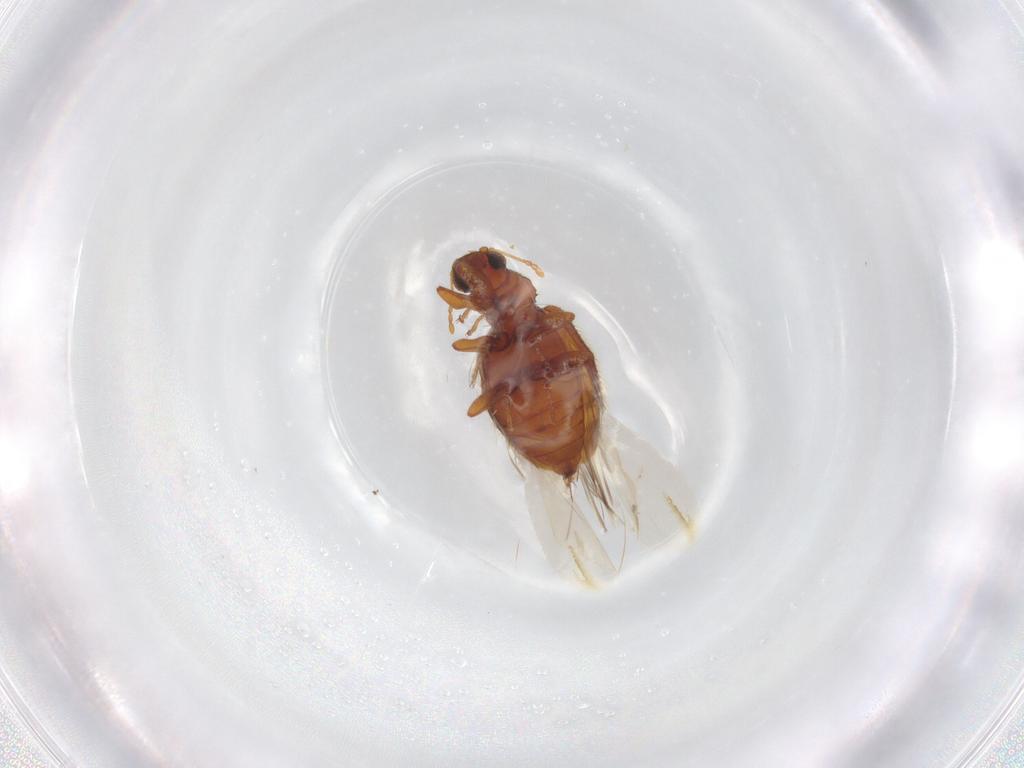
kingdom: Animalia
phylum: Arthropoda
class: Insecta
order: Coleoptera
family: Latridiidae
